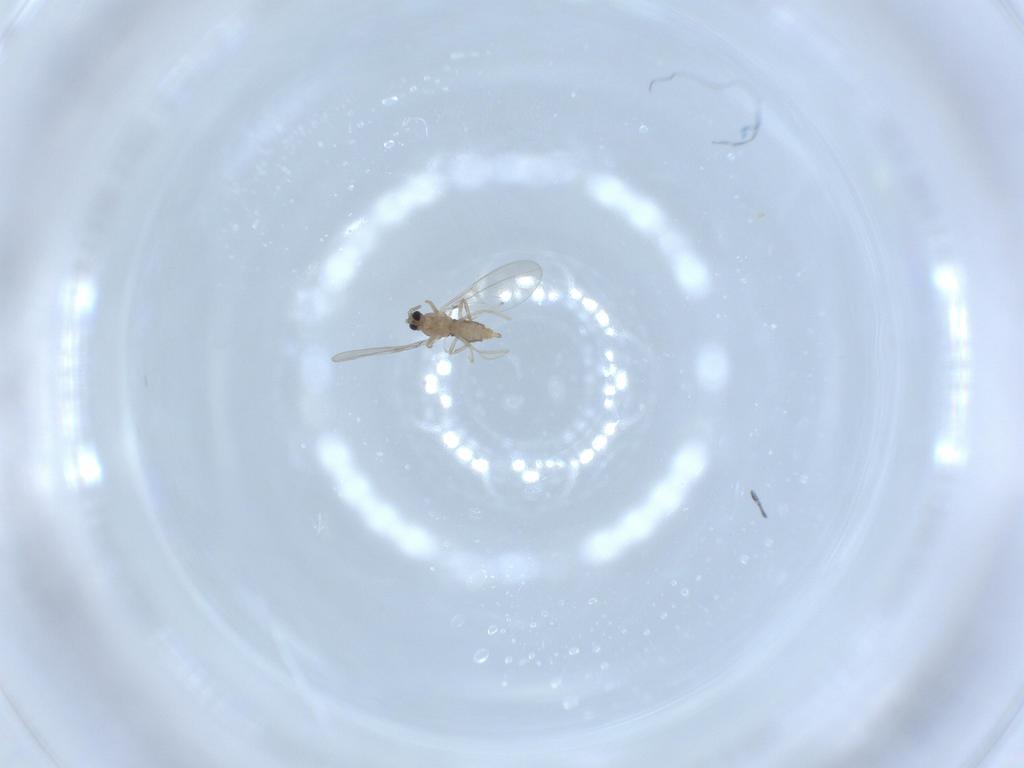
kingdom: Animalia
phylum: Arthropoda
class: Insecta
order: Diptera
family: Cecidomyiidae
